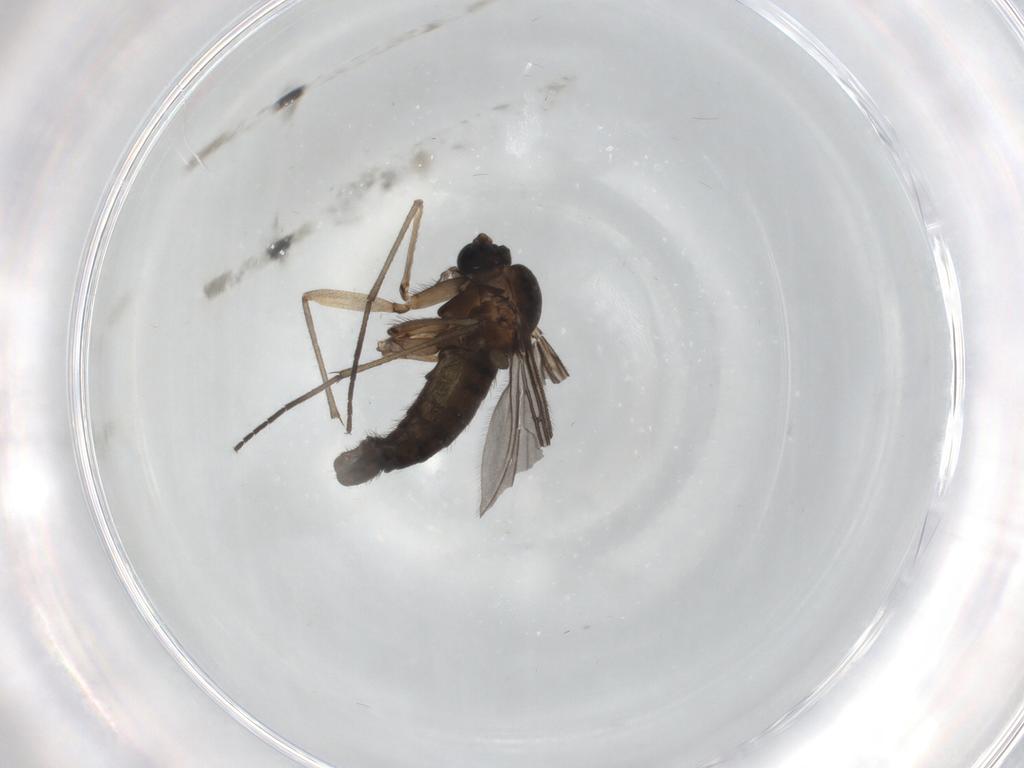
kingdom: Animalia
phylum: Arthropoda
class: Insecta
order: Diptera
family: Sciaridae
